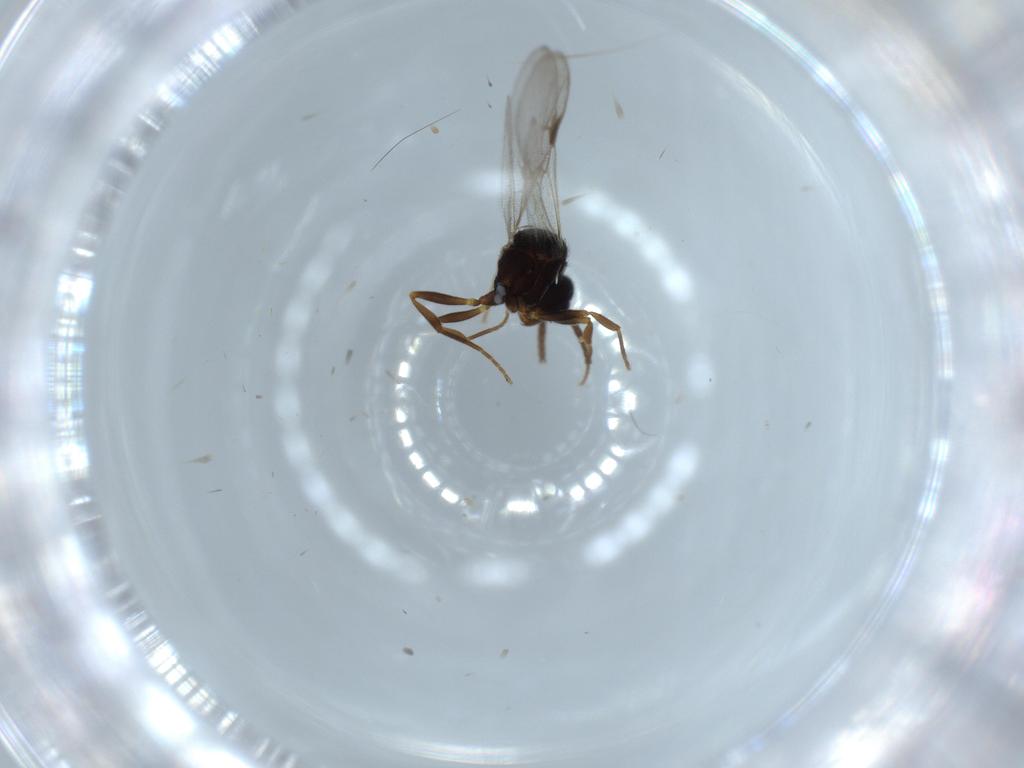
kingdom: Animalia
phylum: Arthropoda
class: Insecta
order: Hymenoptera
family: Formicidae
